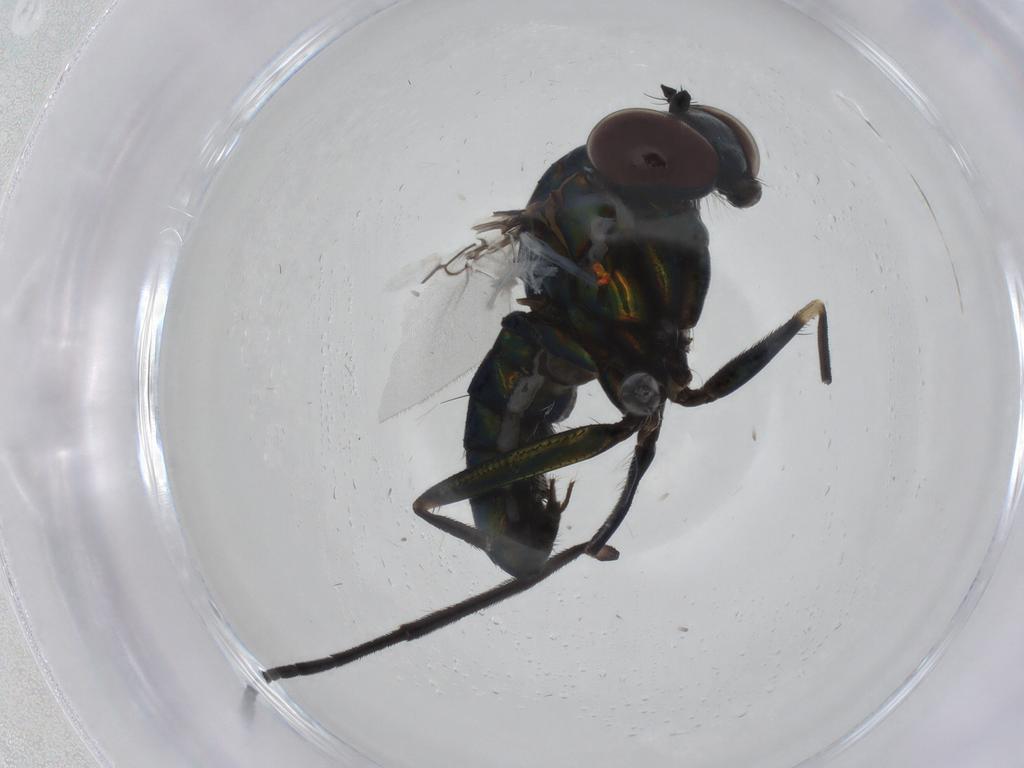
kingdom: Animalia
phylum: Arthropoda
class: Insecta
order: Diptera
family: Dolichopodidae
